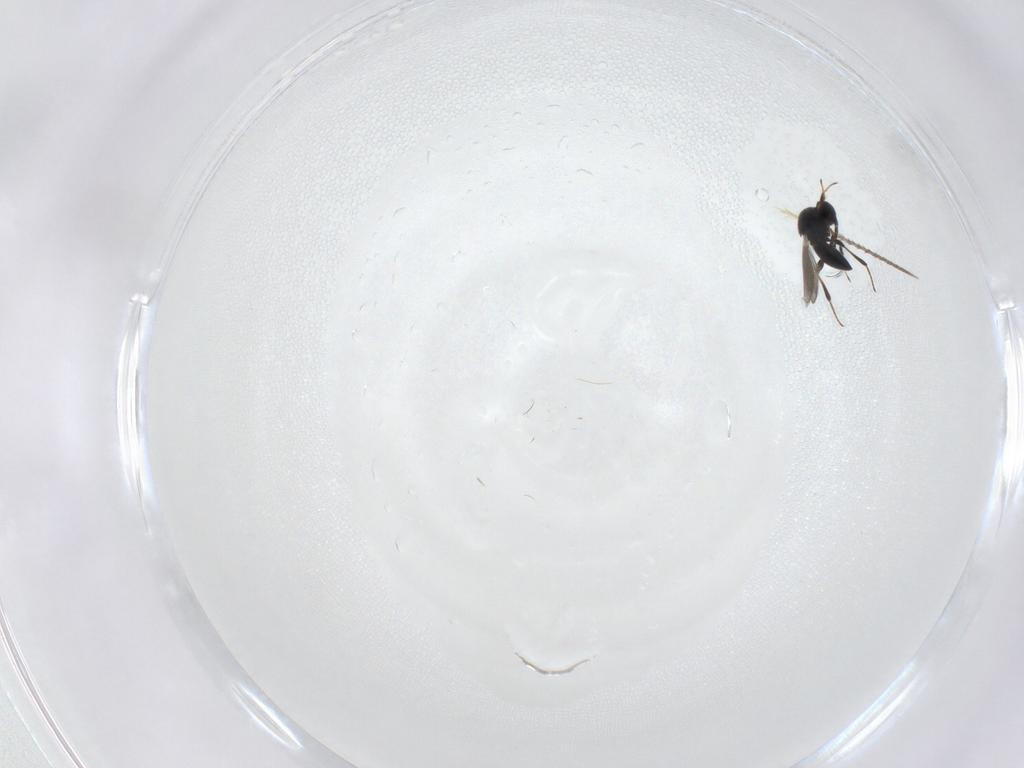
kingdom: Animalia
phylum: Arthropoda
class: Insecta
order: Hymenoptera
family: Platygastridae
